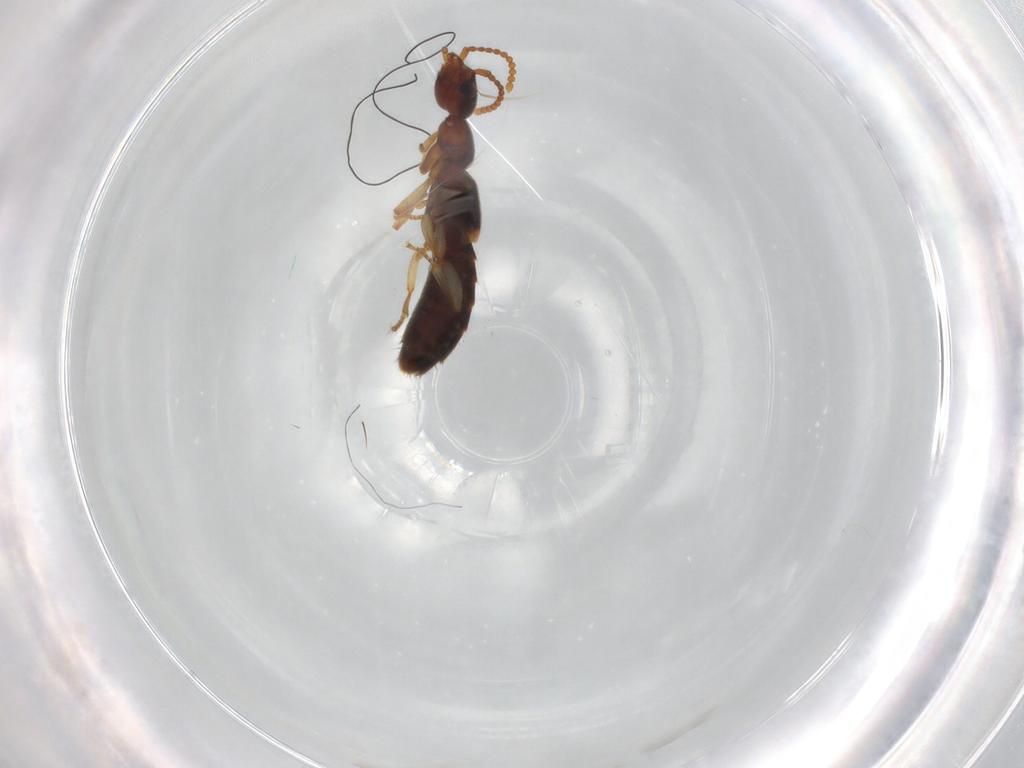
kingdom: Animalia
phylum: Arthropoda
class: Insecta
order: Coleoptera
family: Staphylinidae
